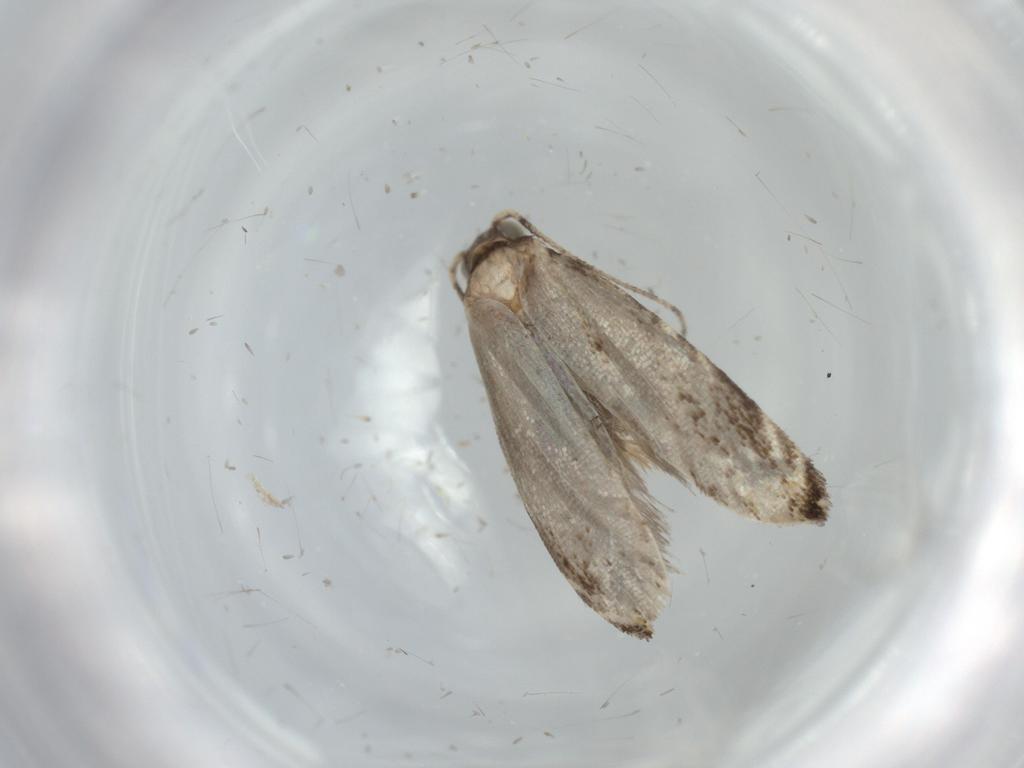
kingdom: Animalia
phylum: Arthropoda
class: Insecta
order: Lepidoptera
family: Tineidae
